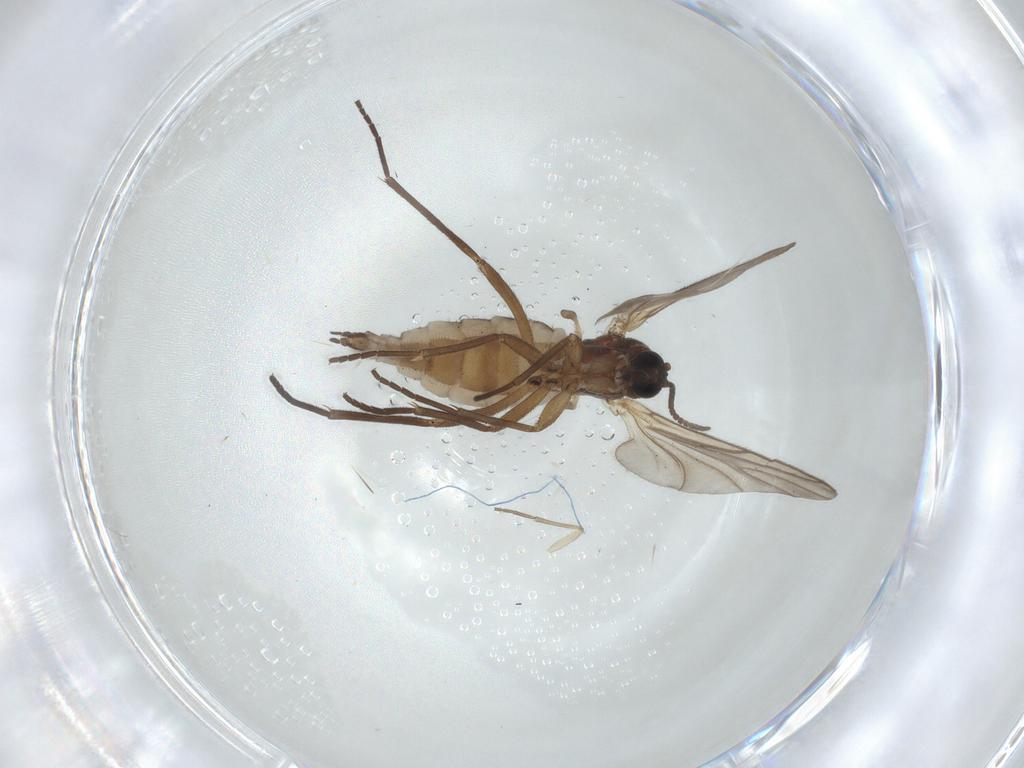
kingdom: Animalia
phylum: Arthropoda
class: Insecta
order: Diptera
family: Sciaridae
